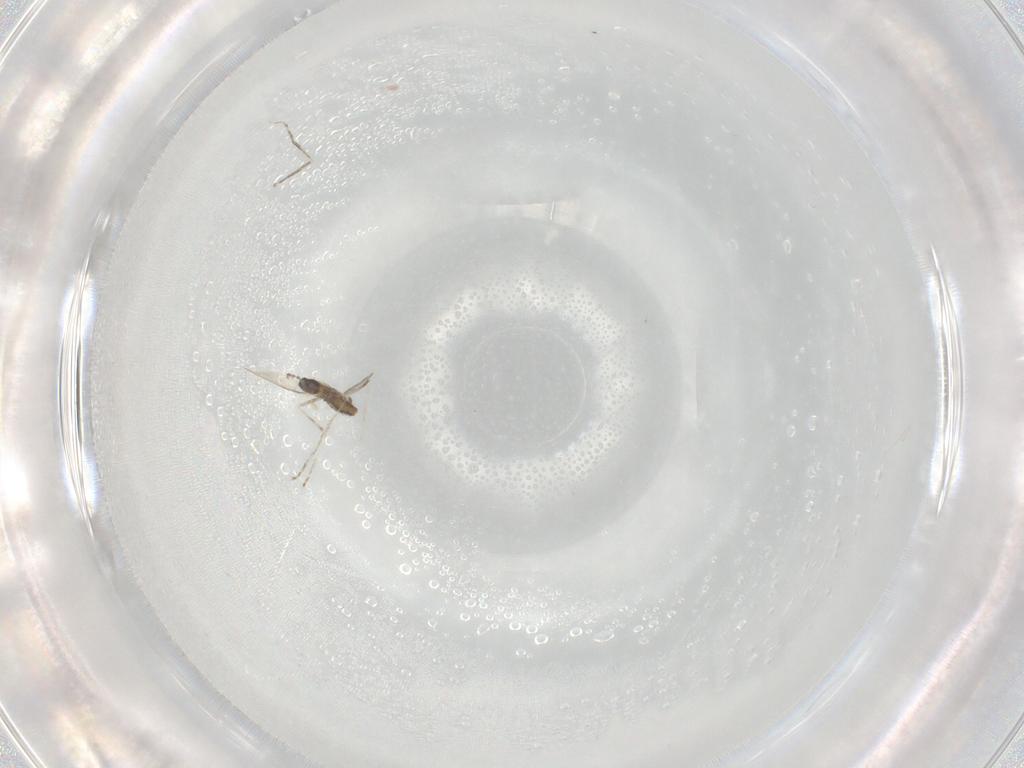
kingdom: Animalia
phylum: Arthropoda
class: Insecta
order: Diptera
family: Cecidomyiidae
